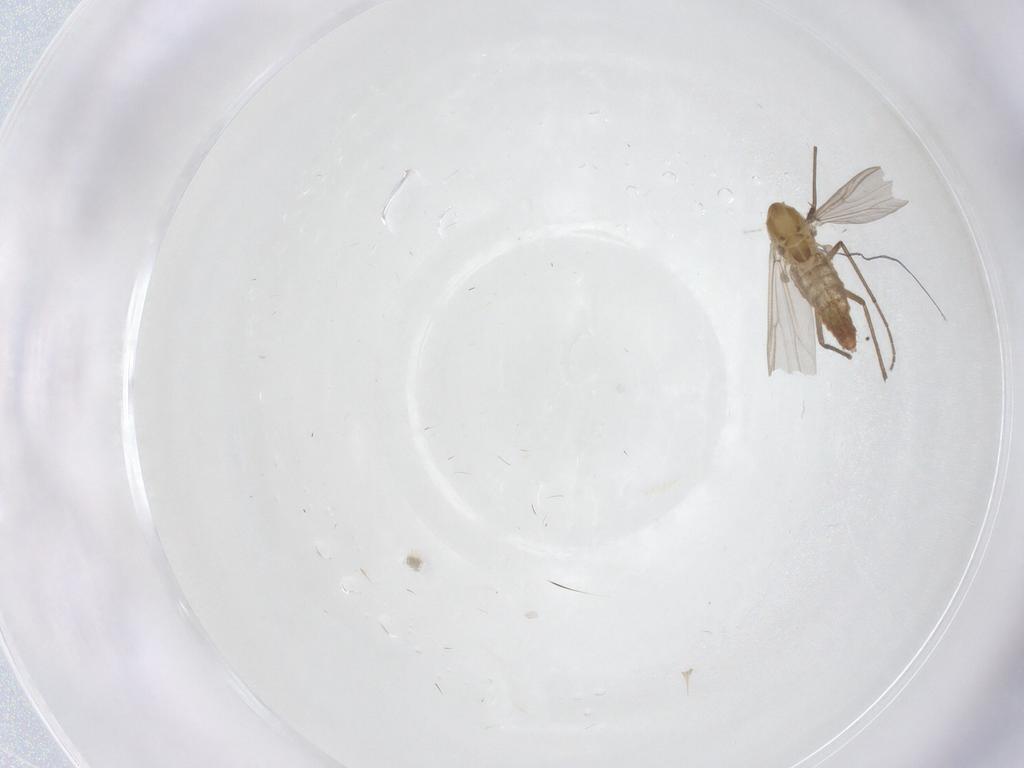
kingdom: Animalia
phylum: Arthropoda
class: Insecta
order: Diptera
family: Chironomidae
